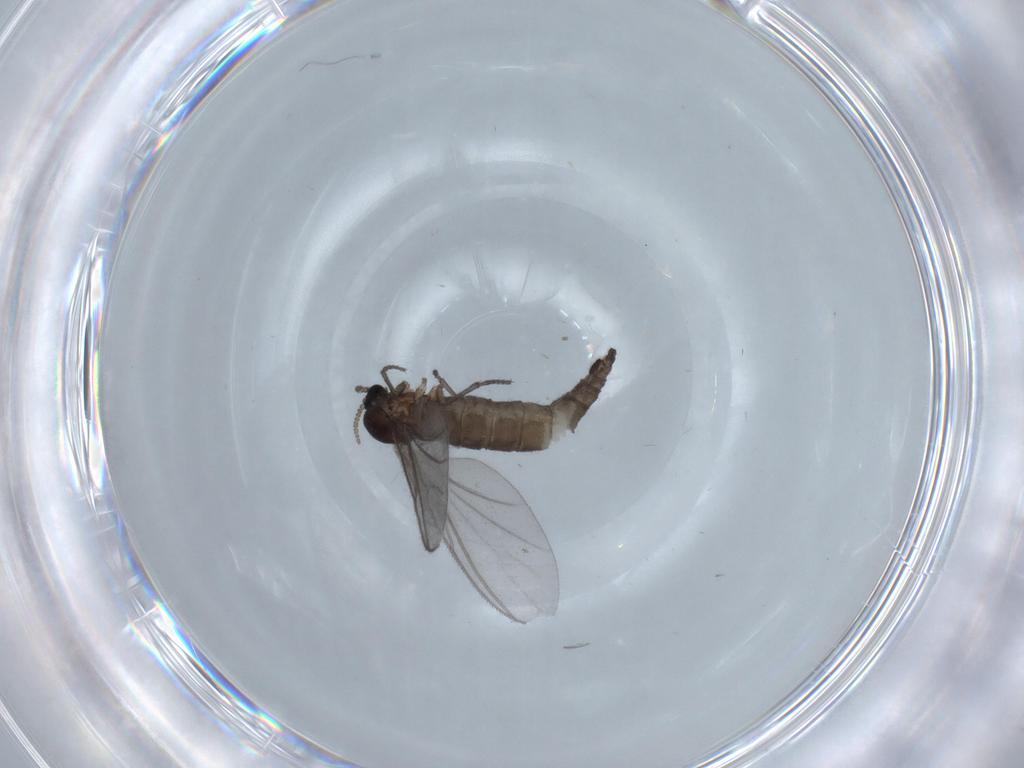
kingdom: Animalia
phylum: Arthropoda
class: Insecta
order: Diptera
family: Sciaridae
